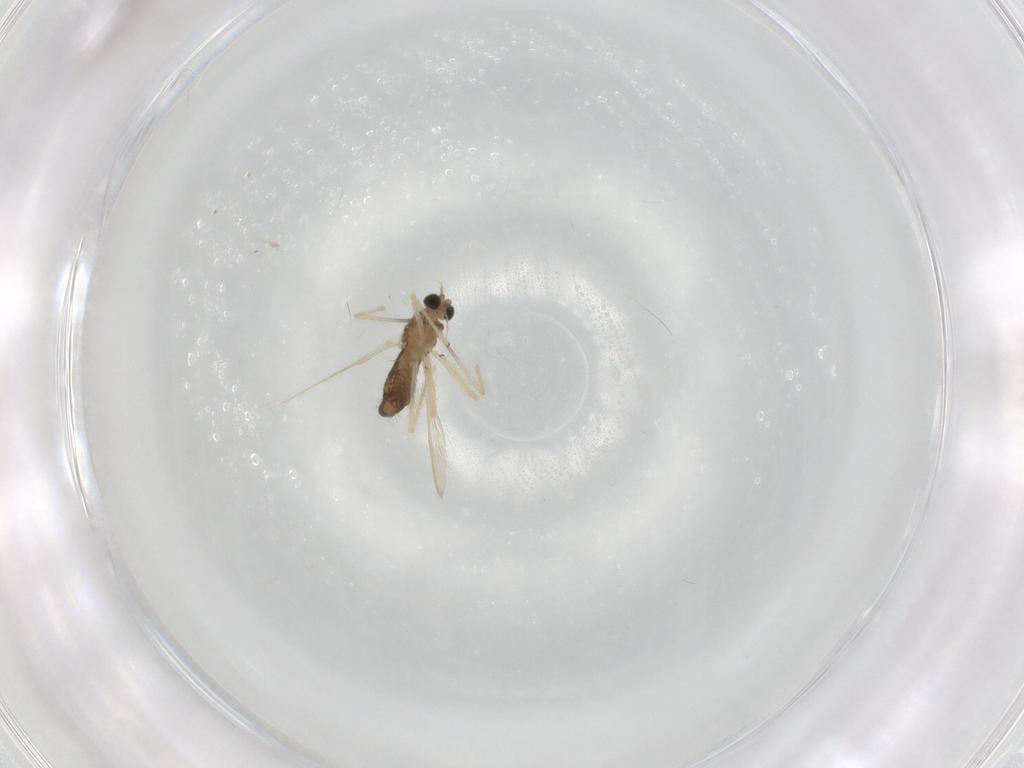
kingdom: Animalia
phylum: Arthropoda
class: Insecta
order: Diptera
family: Chironomidae
